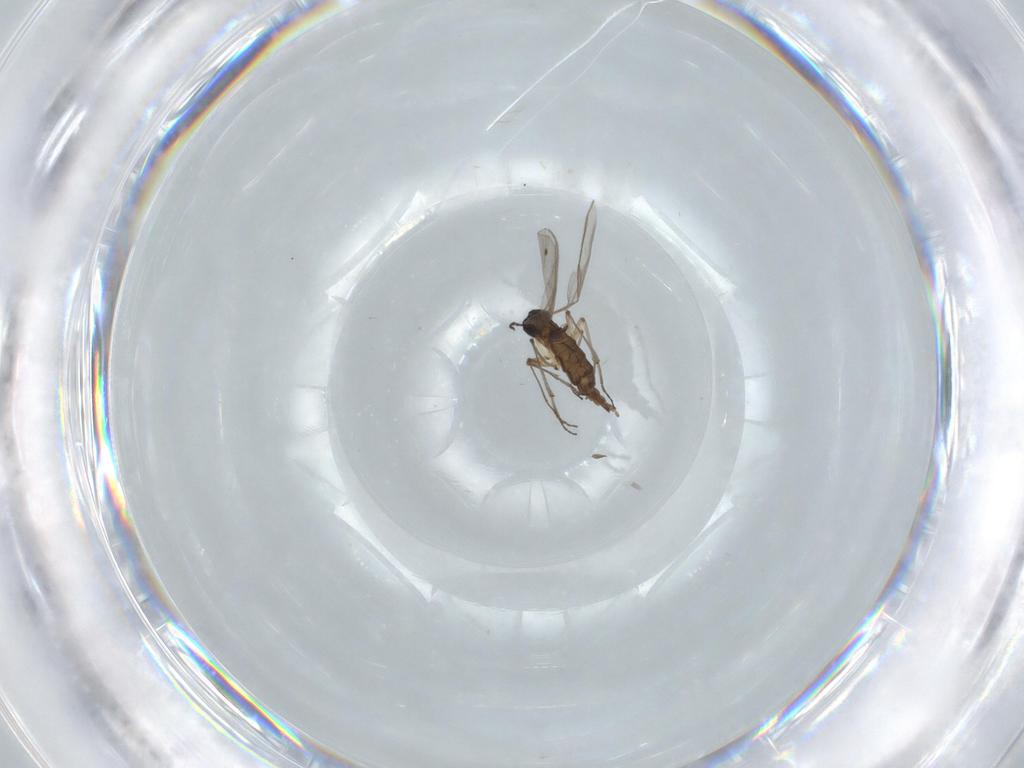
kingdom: Animalia
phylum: Arthropoda
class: Insecta
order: Diptera
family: Sciaridae
